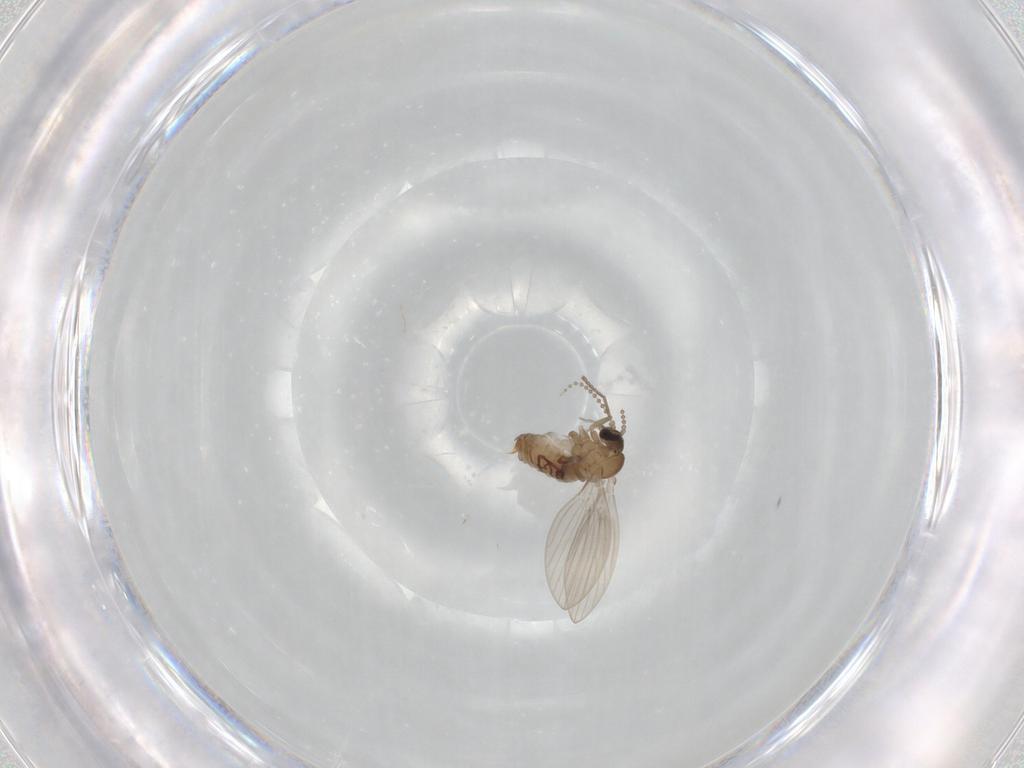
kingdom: Animalia
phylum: Arthropoda
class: Insecta
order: Diptera
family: Psychodidae
